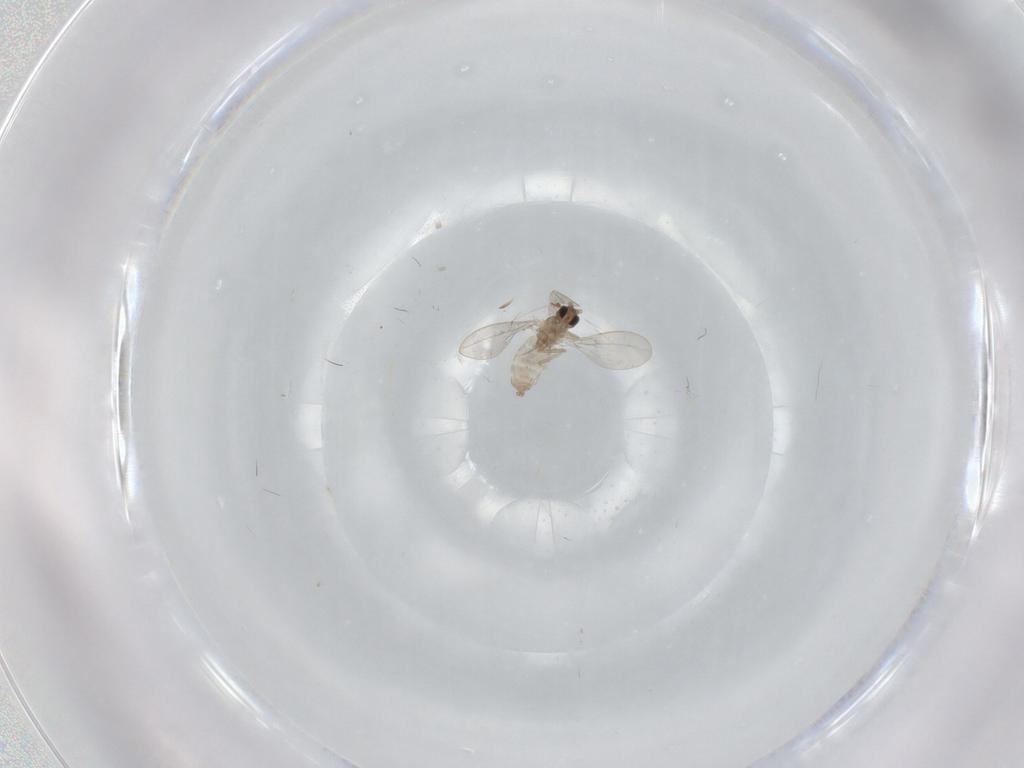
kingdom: Animalia
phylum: Arthropoda
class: Insecta
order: Diptera
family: Cecidomyiidae
